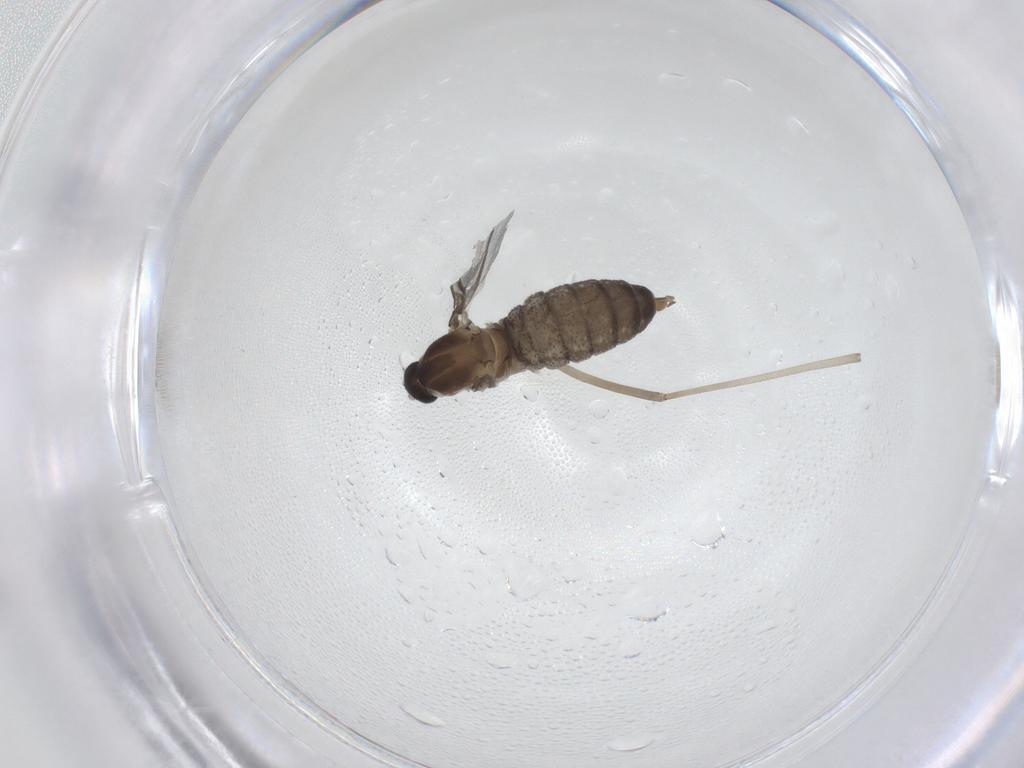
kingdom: Animalia
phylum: Arthropoda
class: Insecta
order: Diptera
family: Cecidomyiidae
